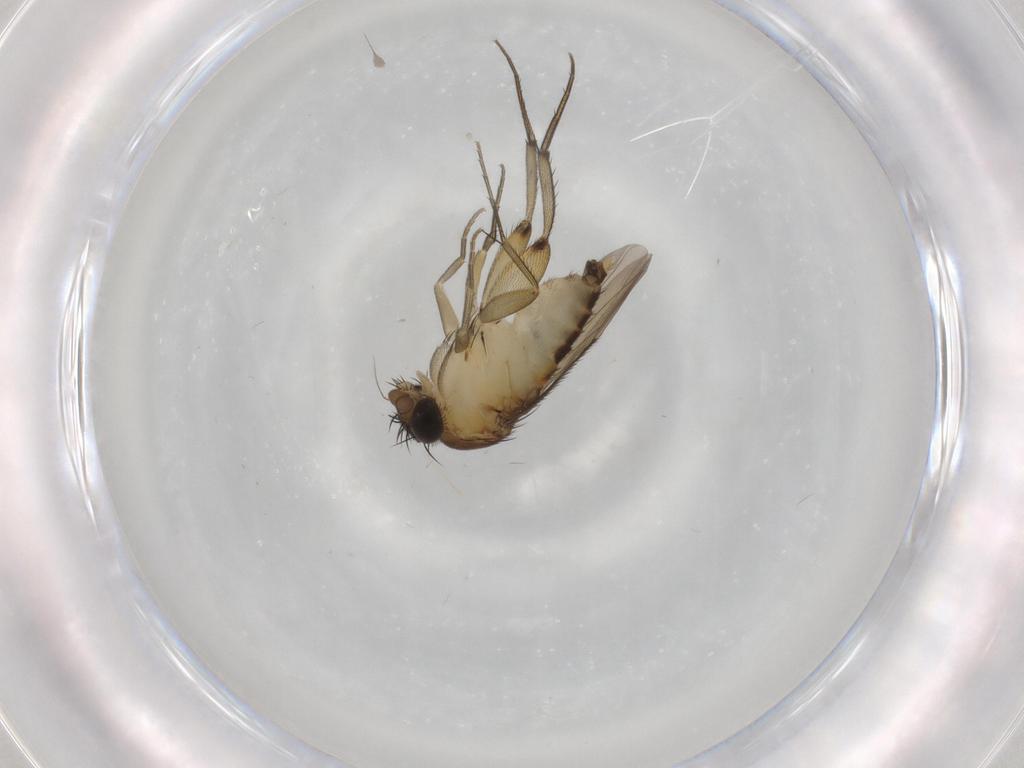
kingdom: Animalia
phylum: Arthropoda
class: Insecta
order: Diptera
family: Phoridae
